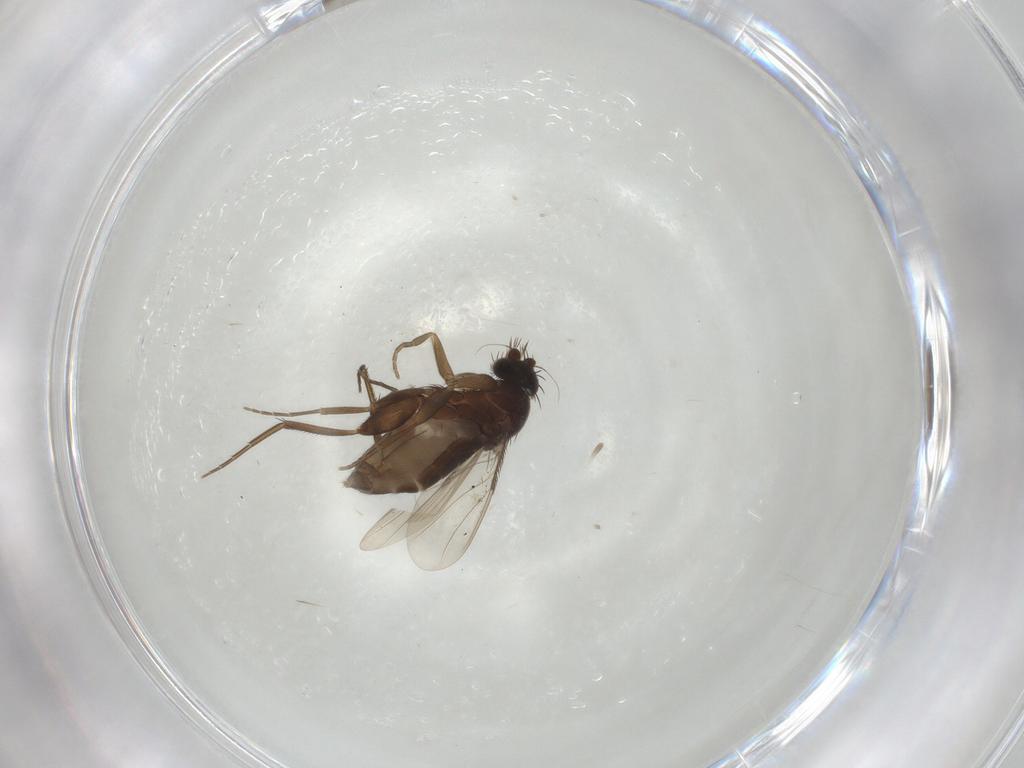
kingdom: Animalia
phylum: Arthropoda
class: Insecta
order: Diptera
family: Phoridae
